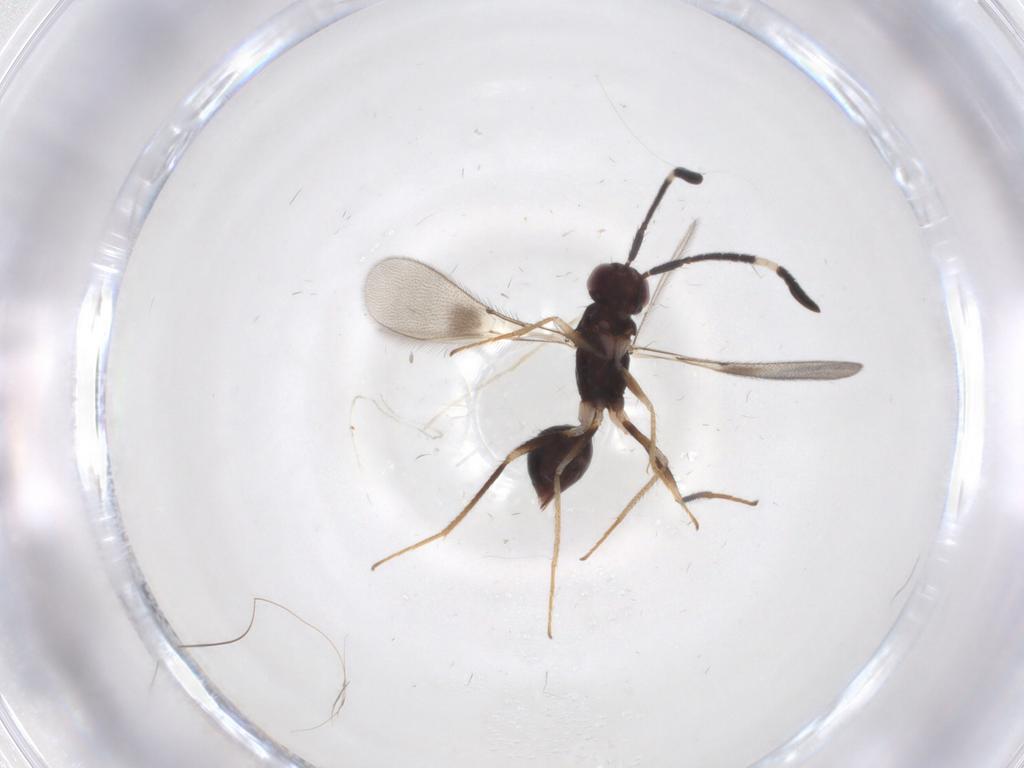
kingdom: Animalia
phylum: Arthropoda
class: Insecta
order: Hymenoptera
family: Mymaridae
